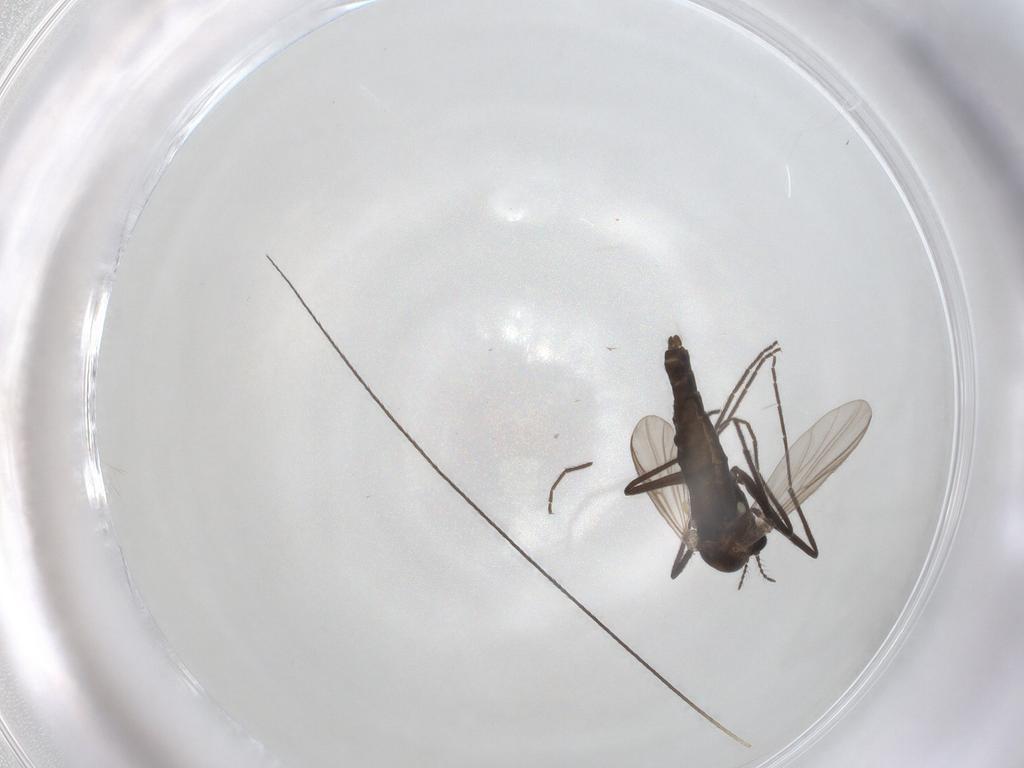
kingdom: Animalia
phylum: Arthropoda
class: Insecta
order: Diptera
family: Chironomidae
